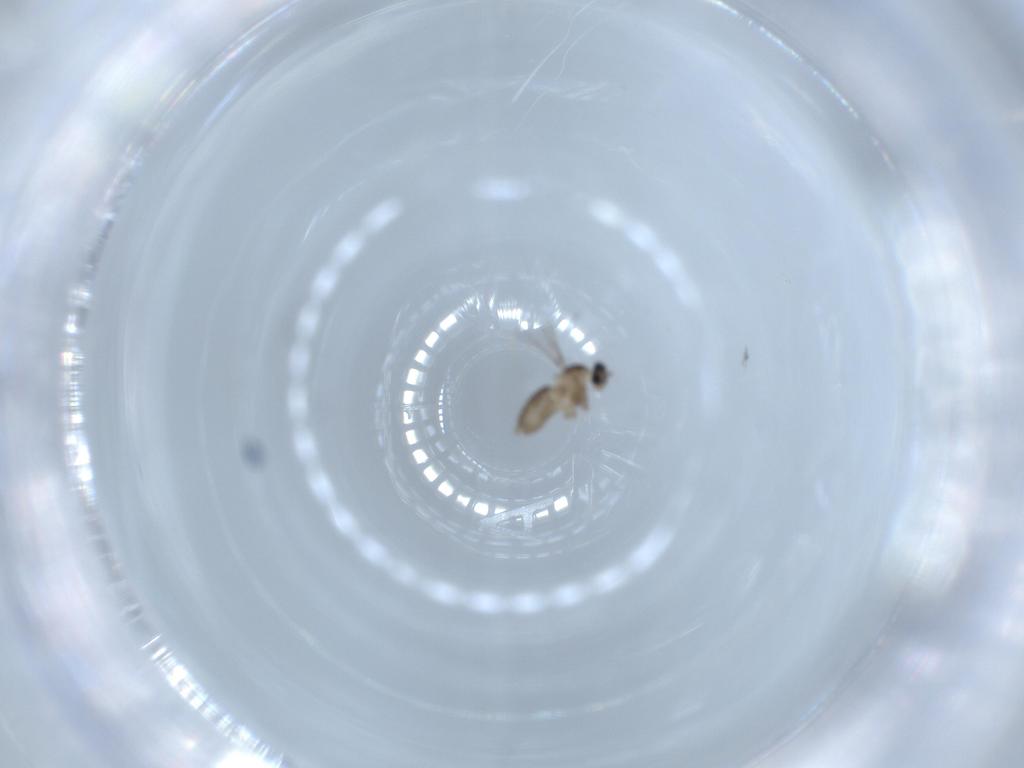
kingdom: Animalia
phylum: Arthropoda
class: Insecta
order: Diptera
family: Cecidomyiidae
